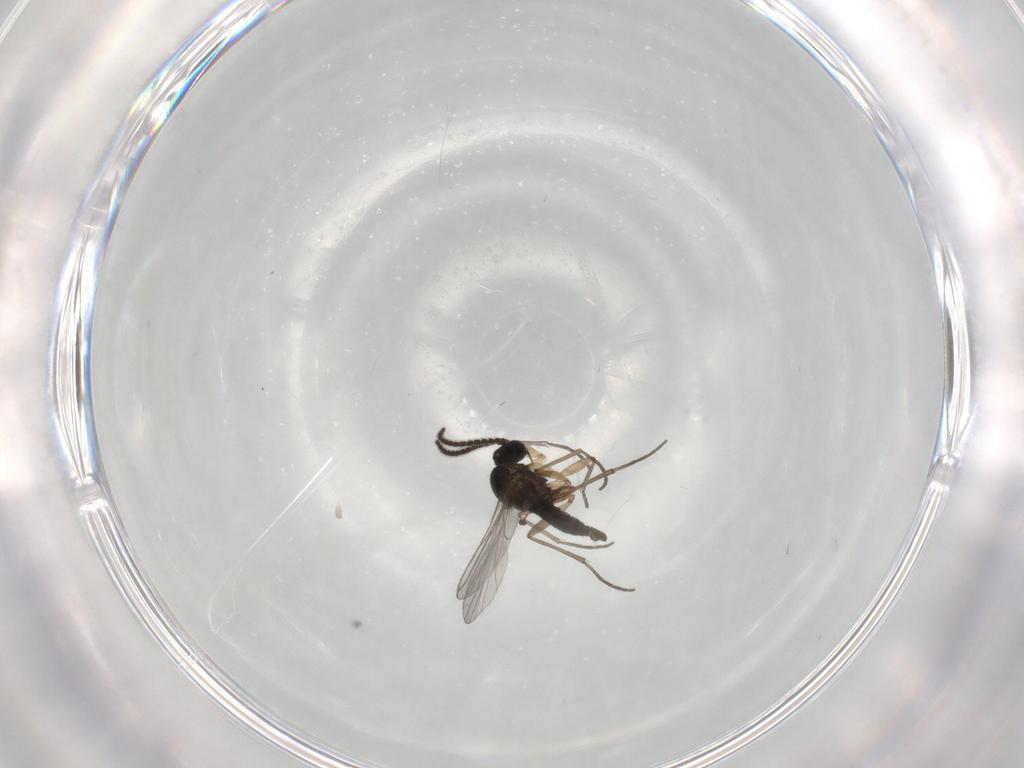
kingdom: Animalia
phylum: Arthropoda
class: Insecta
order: Diptera
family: Sciaridae
